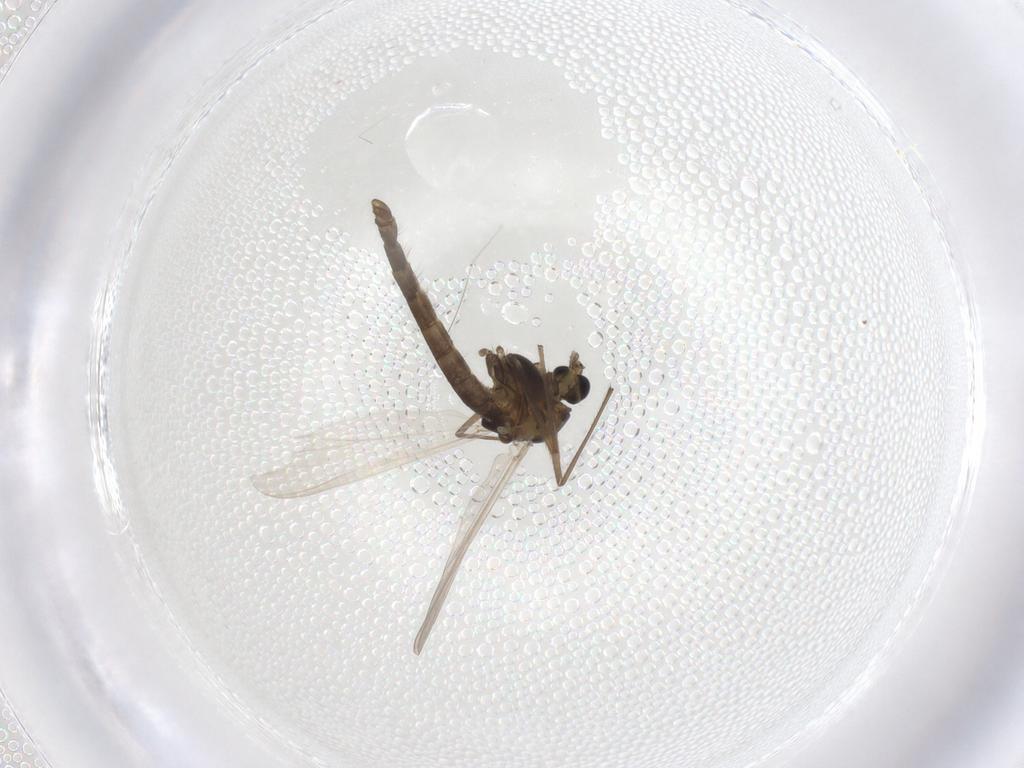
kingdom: Animalia
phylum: Arthropoda
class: Insecta
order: Diptera
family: Chironomidae
